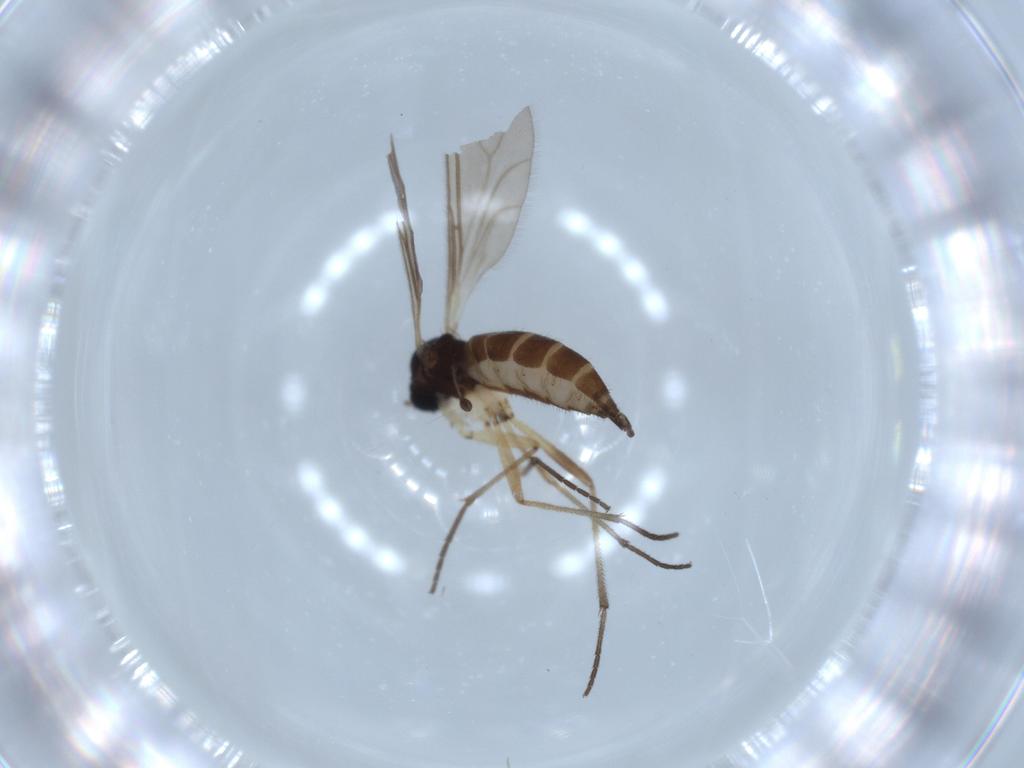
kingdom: Animalia
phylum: Arthropoda
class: Insecta
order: Diptera
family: Sciaridae
